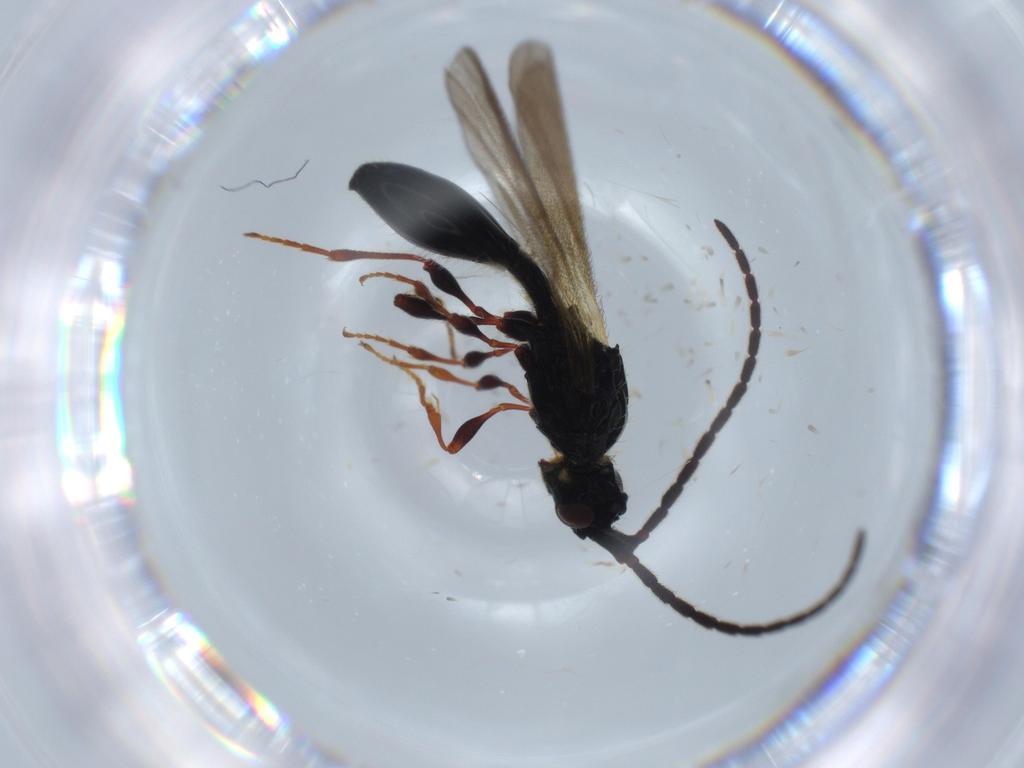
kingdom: Animalia
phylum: Arthropoda
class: Insecta
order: Hymenoptera
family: Diapriidae
